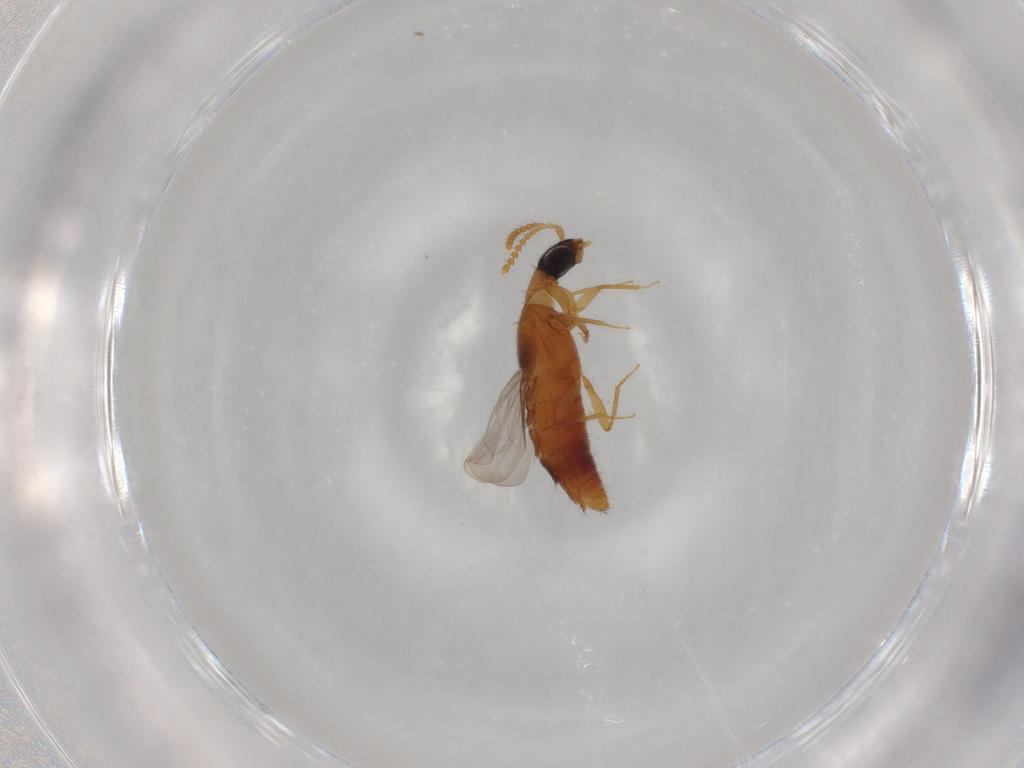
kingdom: Animalia
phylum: Arthropoda
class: Insecta
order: Coleoptera
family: Staphylinidae
